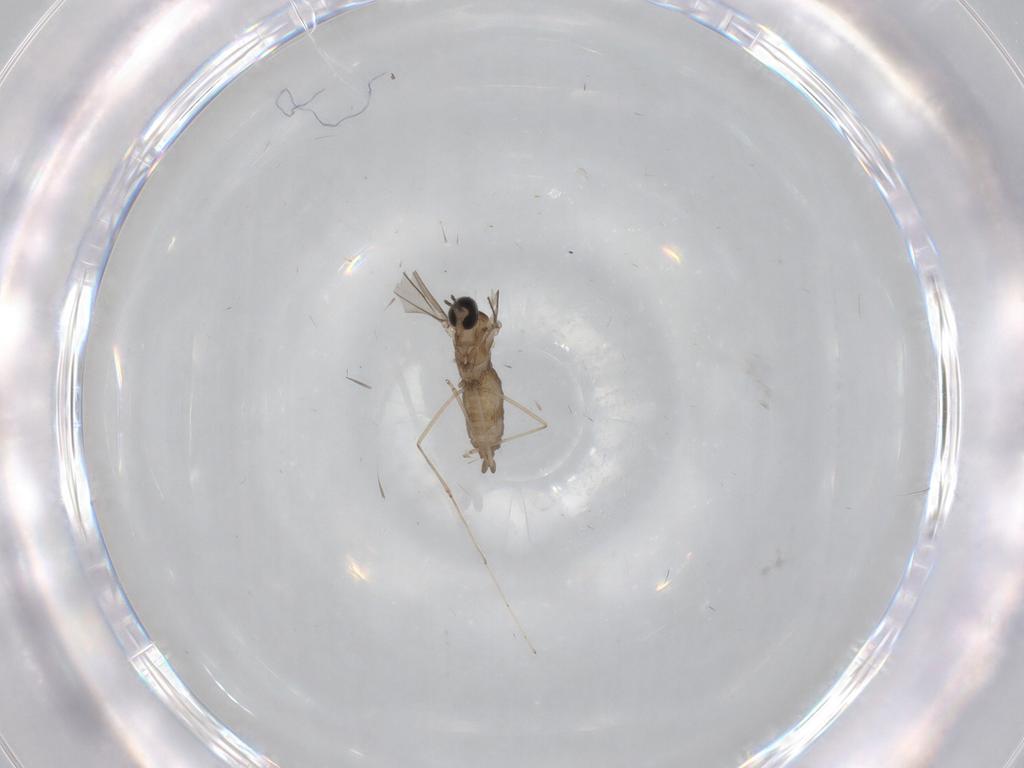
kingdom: Animalia
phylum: Arthropoda
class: Insecta
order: Diptera
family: Cecidomyiidae
